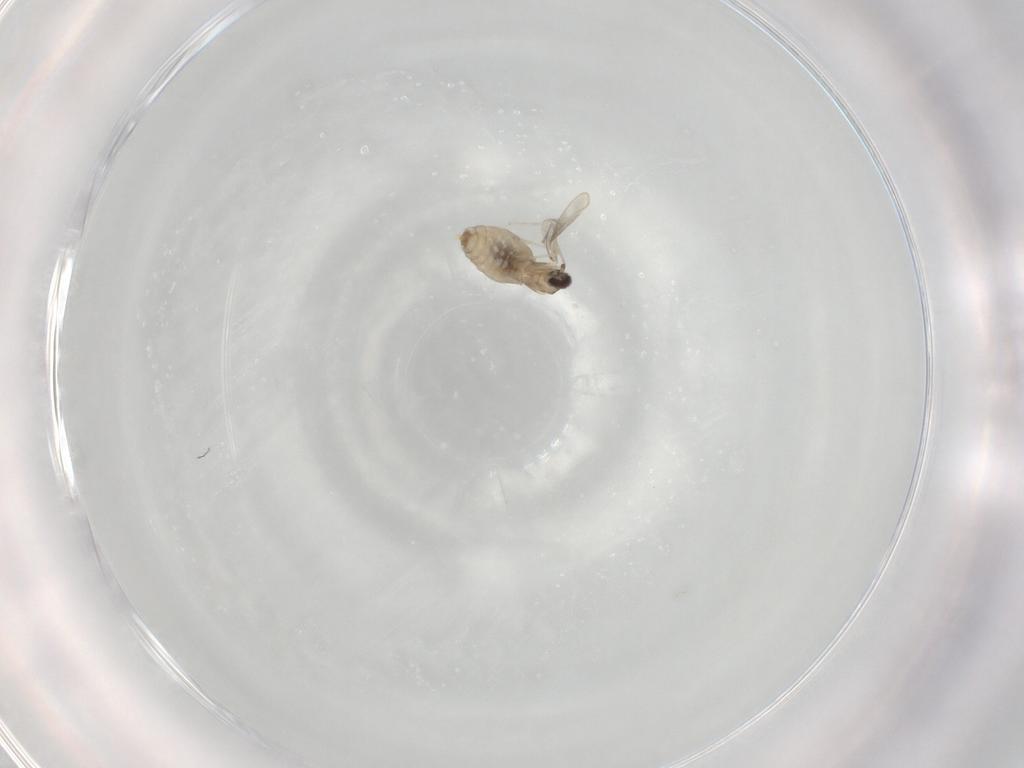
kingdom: Animalia
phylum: Arthropoda
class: Insecta
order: Diptera
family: Cecidomyiidae
